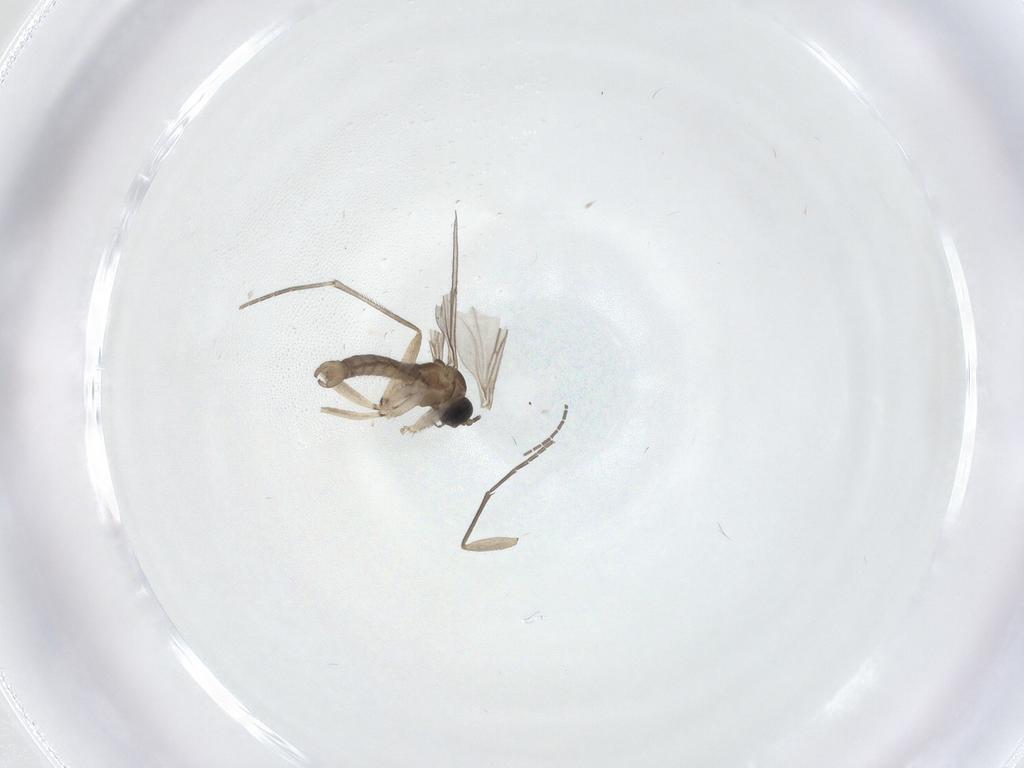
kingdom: Animalia
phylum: Arthropoda
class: Insecta
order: Diptera
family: Sciaridae
